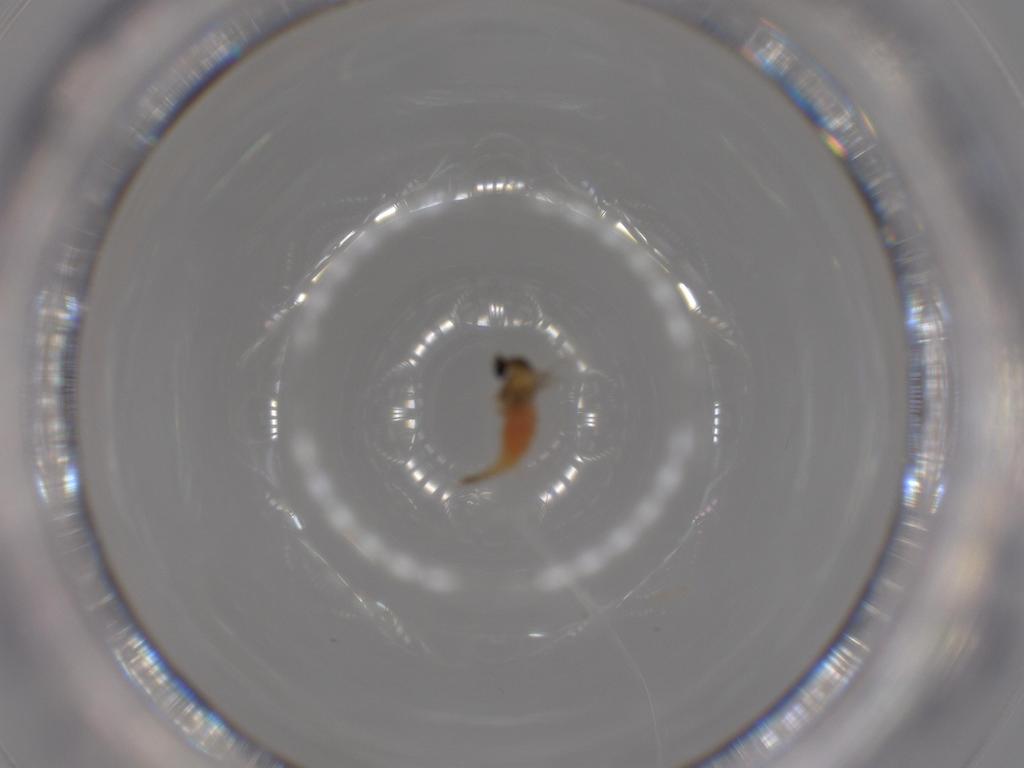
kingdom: Animalia
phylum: Arthropoda
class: Insecta
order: Diptera
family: Cecidomyiidae
